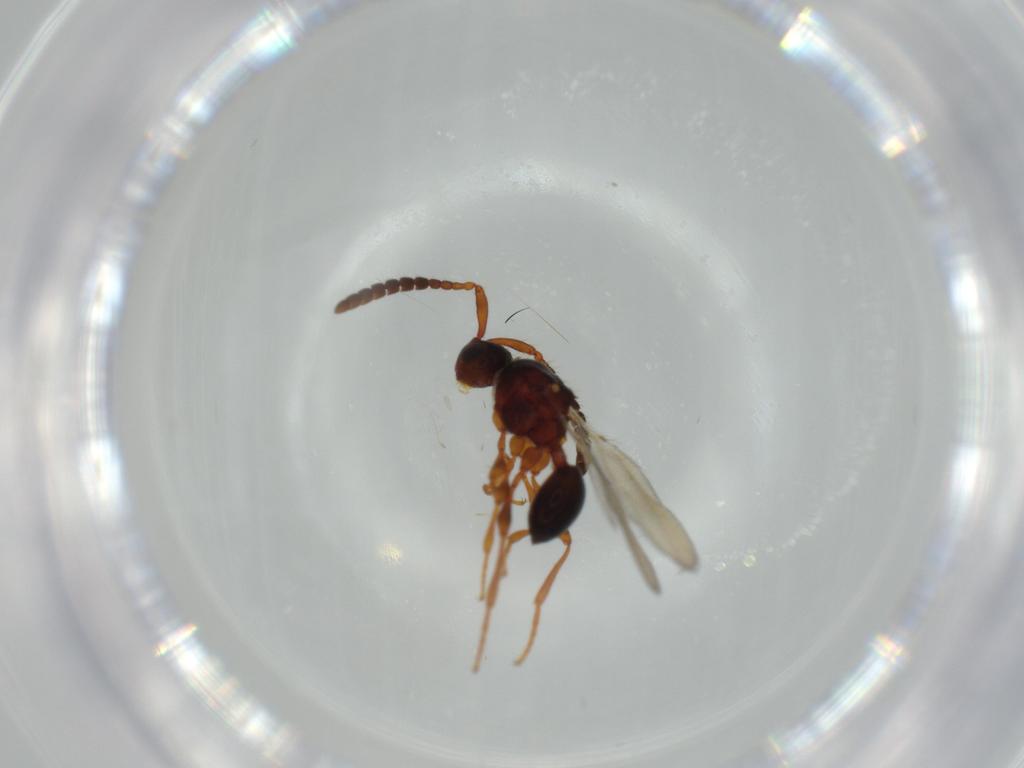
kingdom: Animalia
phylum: Arthropoda
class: Insecta
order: Hymenoptera
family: Diapriidae
